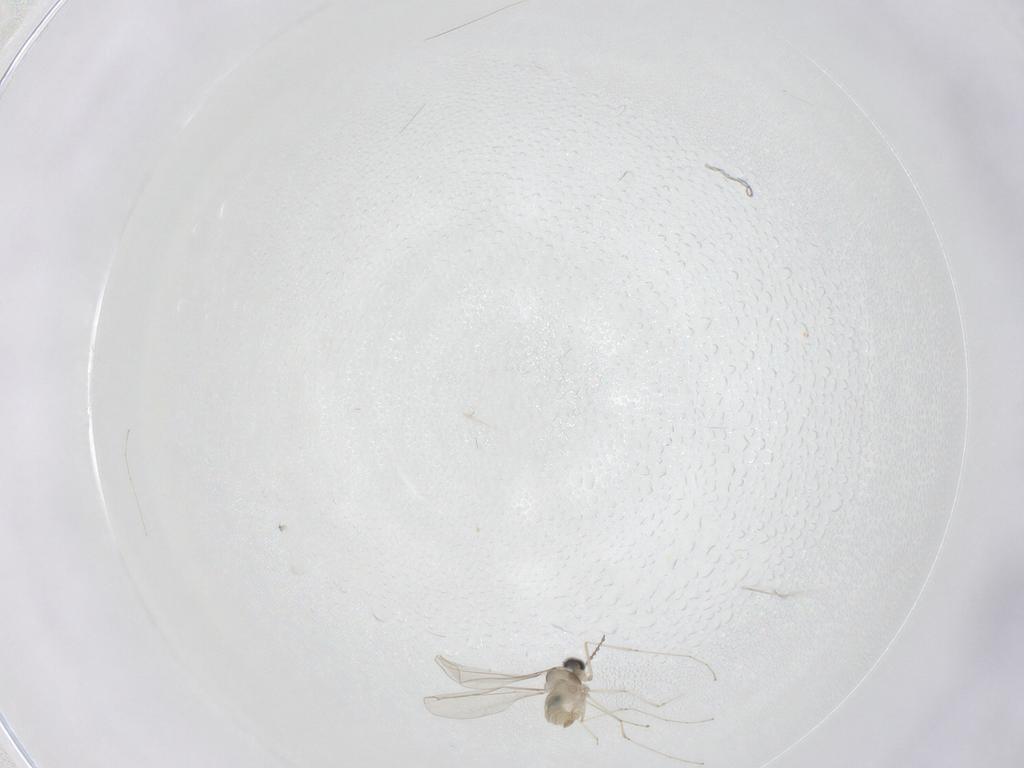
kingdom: Animalia
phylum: Arthropoda
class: Insecta
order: Diptera
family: Cecidomyiidae
